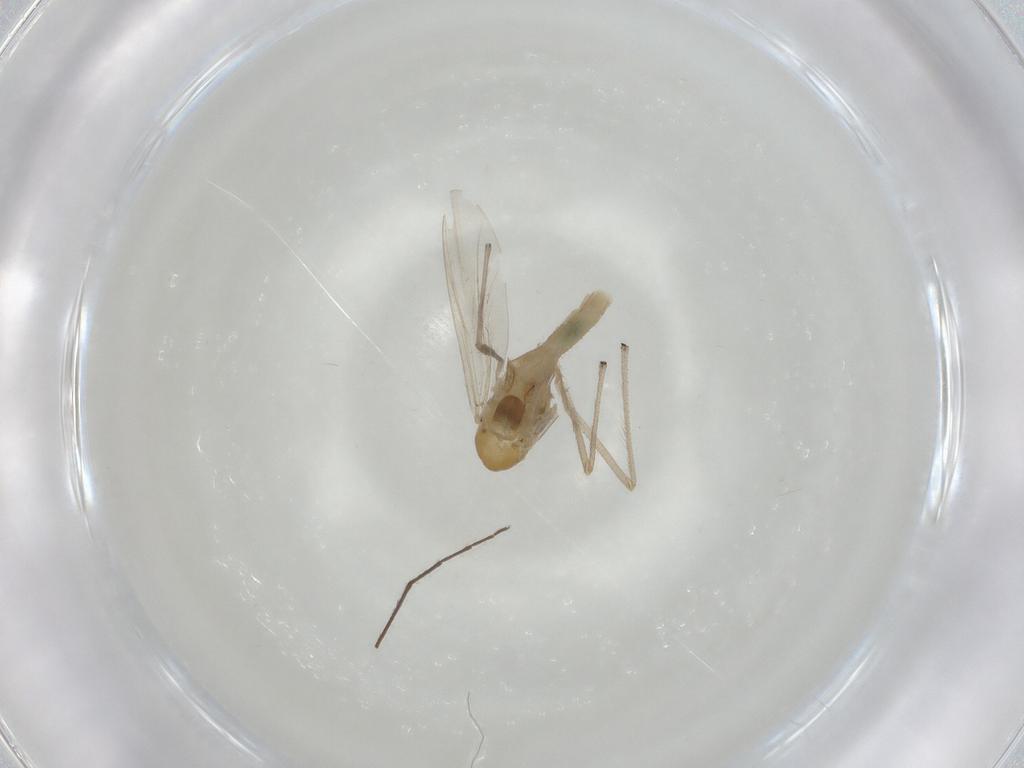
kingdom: Animalia
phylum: Arthropoda
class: Insecta
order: Diptera
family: Chironomidae
